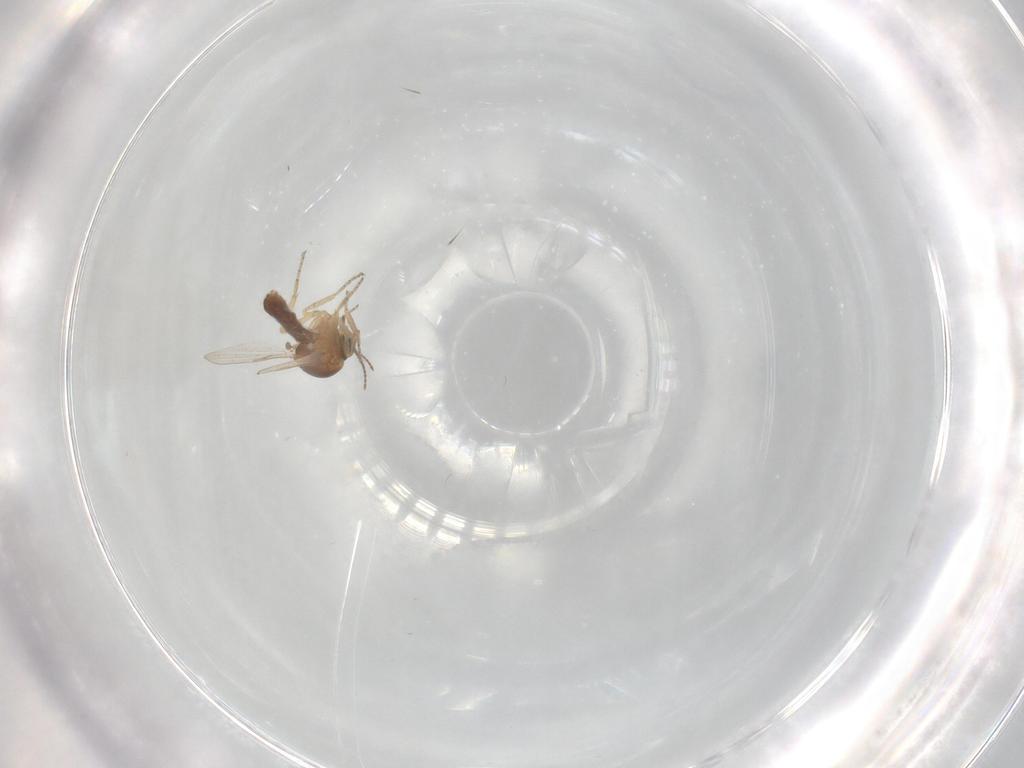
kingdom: Animalia
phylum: Arthropoda
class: Insecta
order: Diptera
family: Ceratopogonidae
